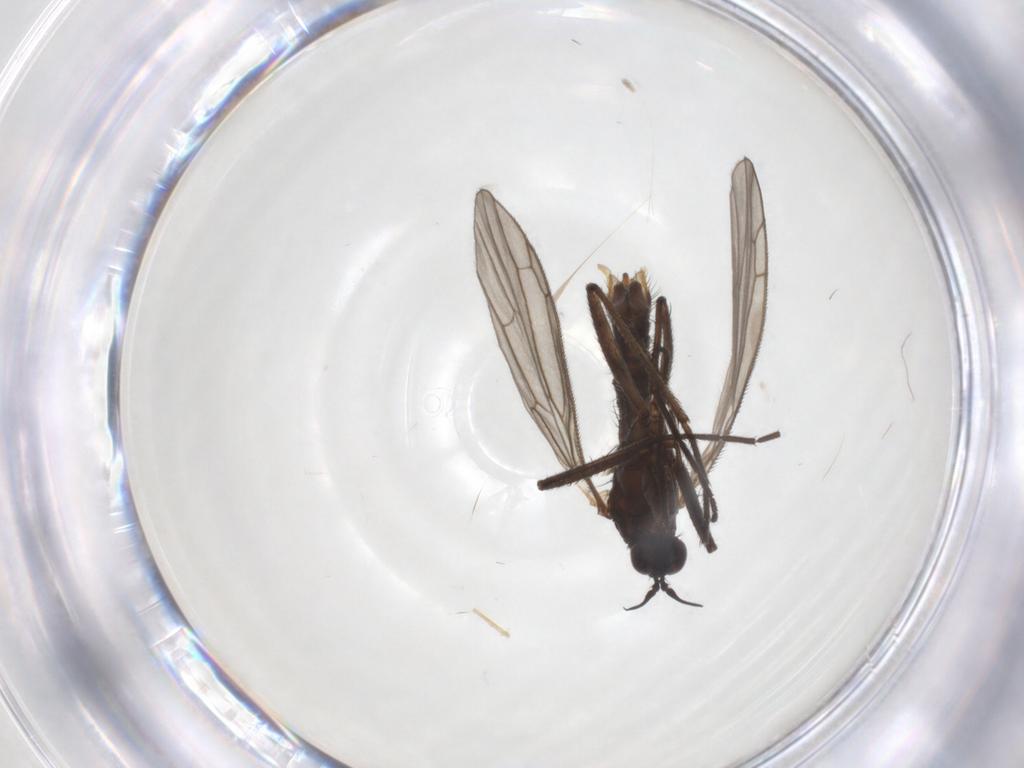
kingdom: Animalia
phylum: Arthropoda
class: Insecta
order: Diptera
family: Empididae
